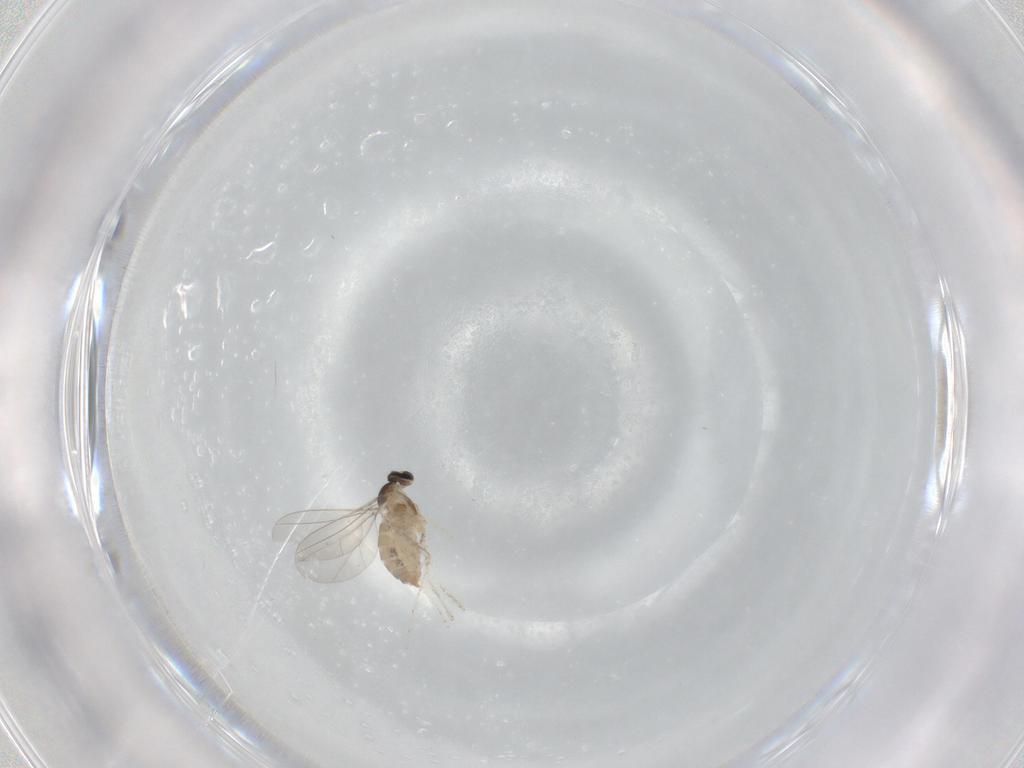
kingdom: Animalia
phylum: Arthropoda
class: Insecta
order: Diptera
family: Cecidomyiidae
